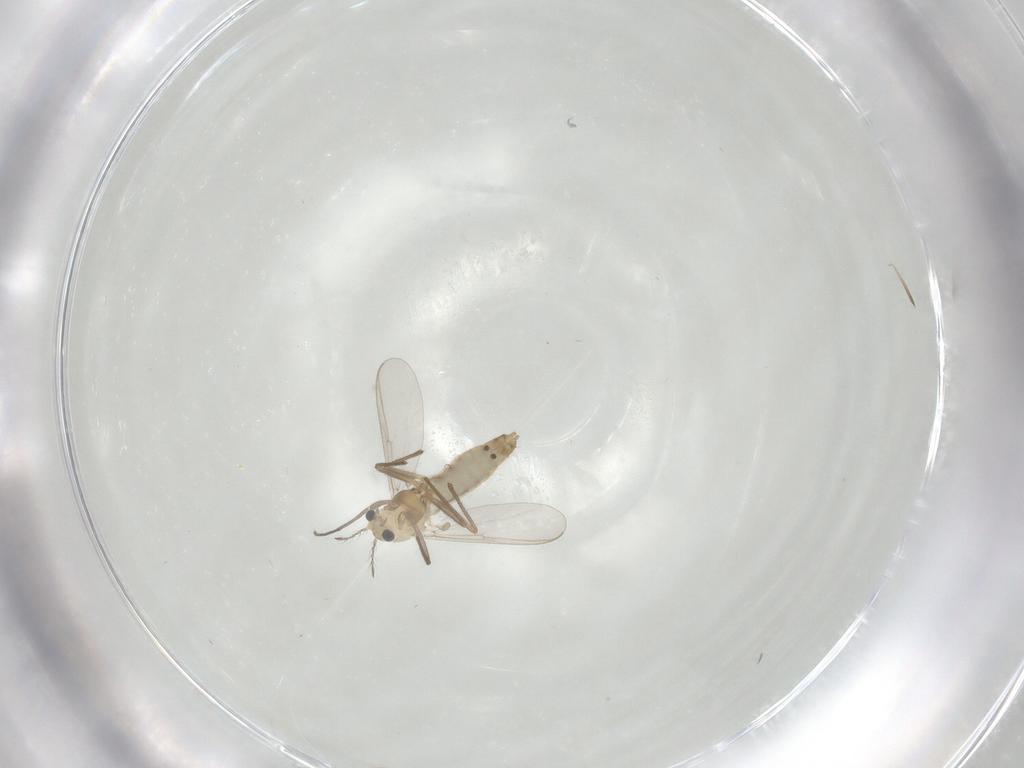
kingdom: Animalia
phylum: Arthropoda
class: Insecta
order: Diptera
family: Chironomidae
